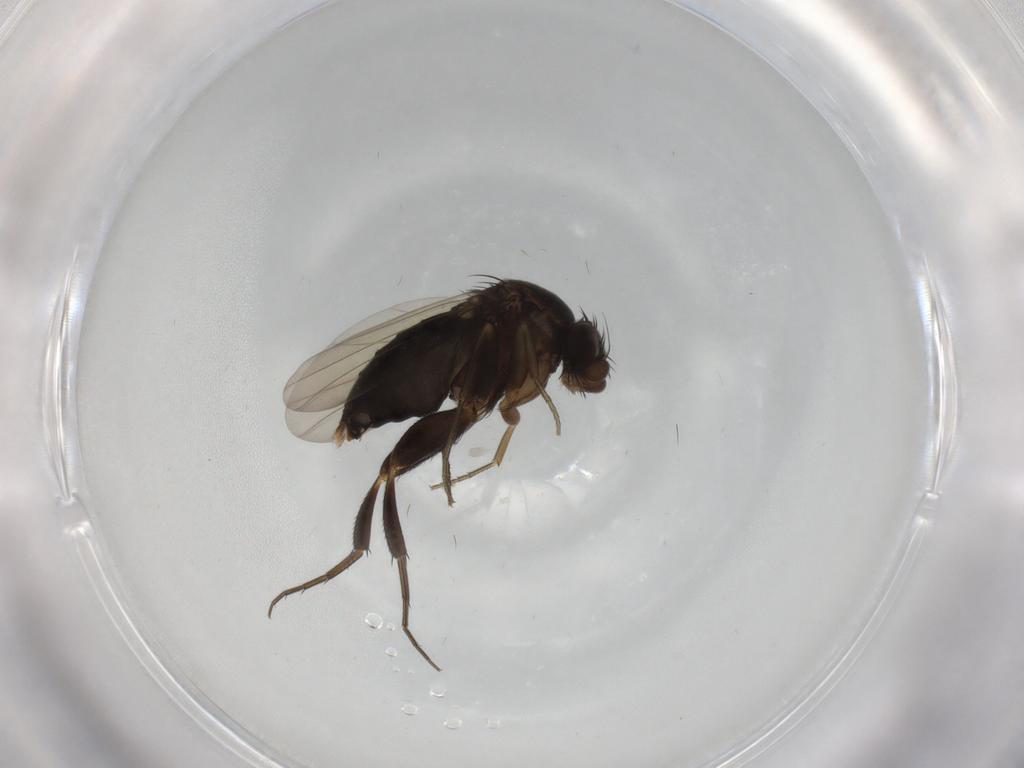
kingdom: Animalia
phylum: Arthropoda
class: Insecta
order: Diptera
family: Phoridae
